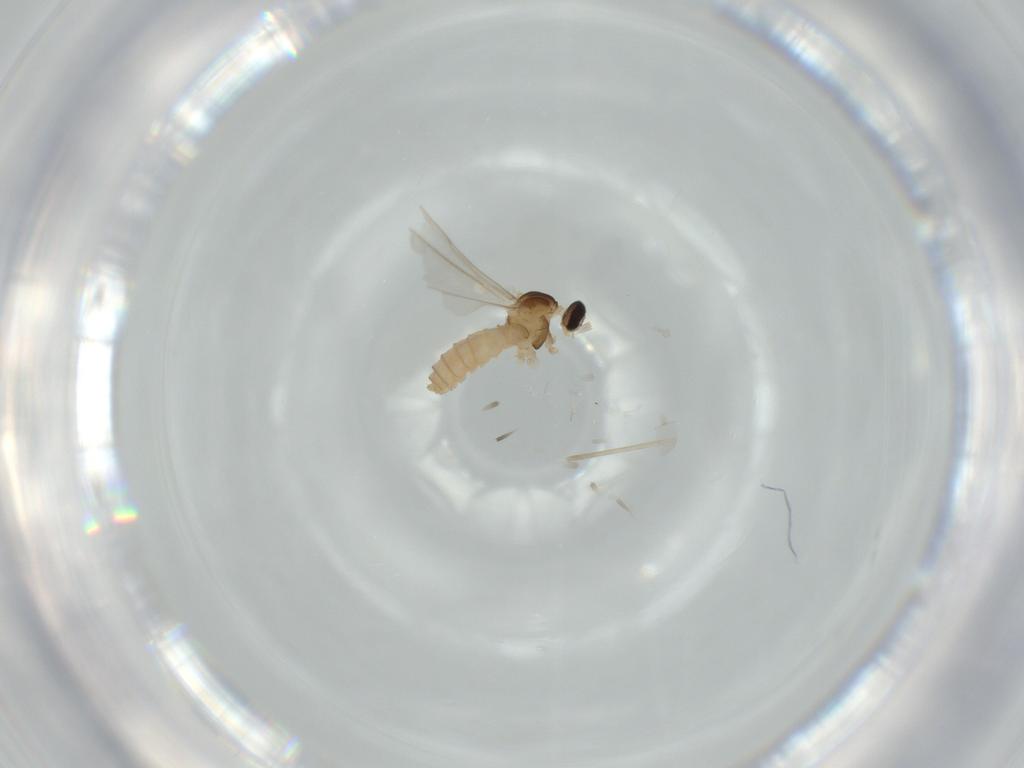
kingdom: Animalia
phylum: Arthropoda
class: Insecta
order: Diptera
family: Cecidomyiidae
